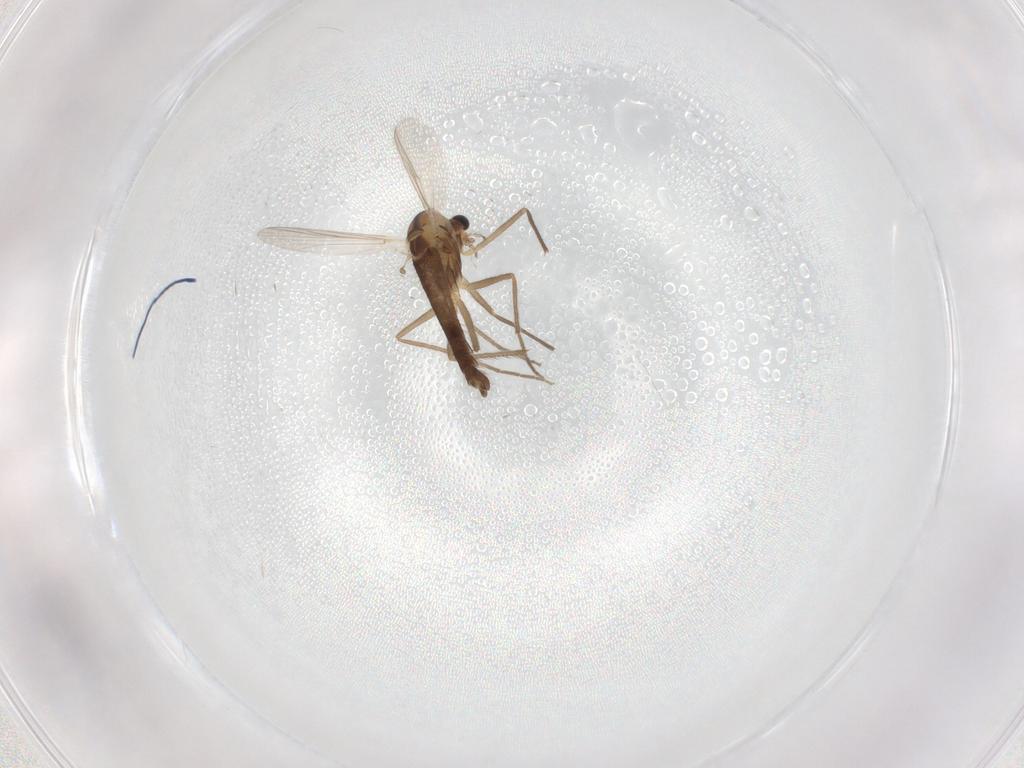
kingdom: Animalia
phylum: Arthropoda
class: Insecta
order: Diptera
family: Chironomidae
